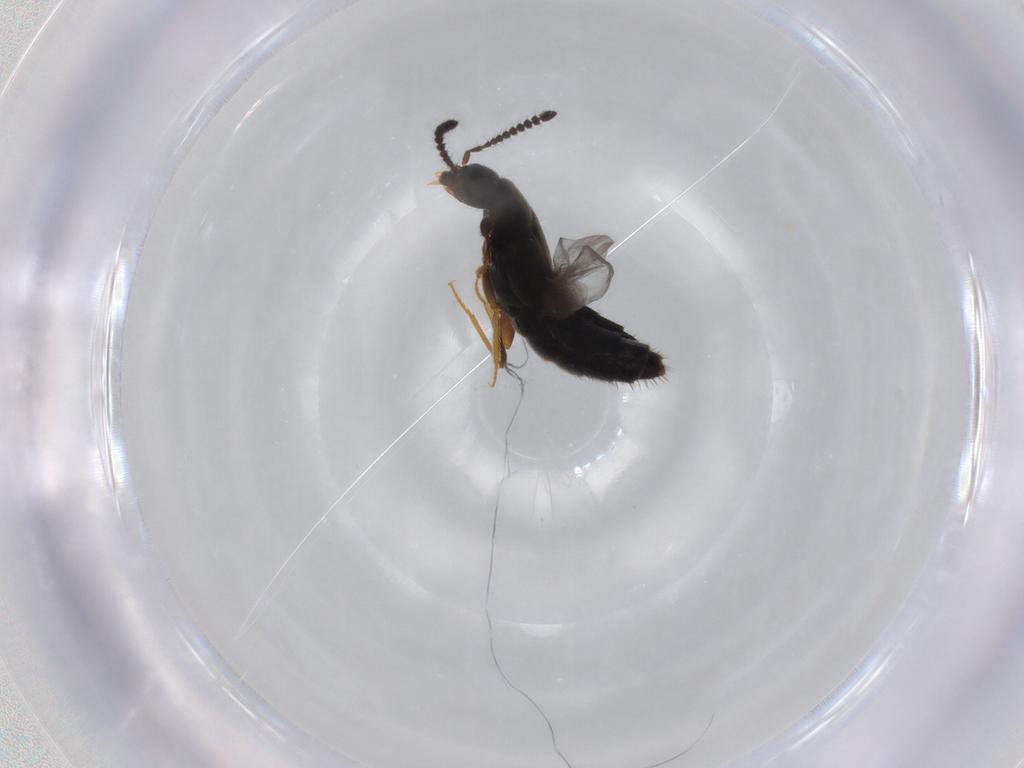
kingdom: Animalia
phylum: Arthropoda
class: Insecta
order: Coleoptera
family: Staphylinidae
